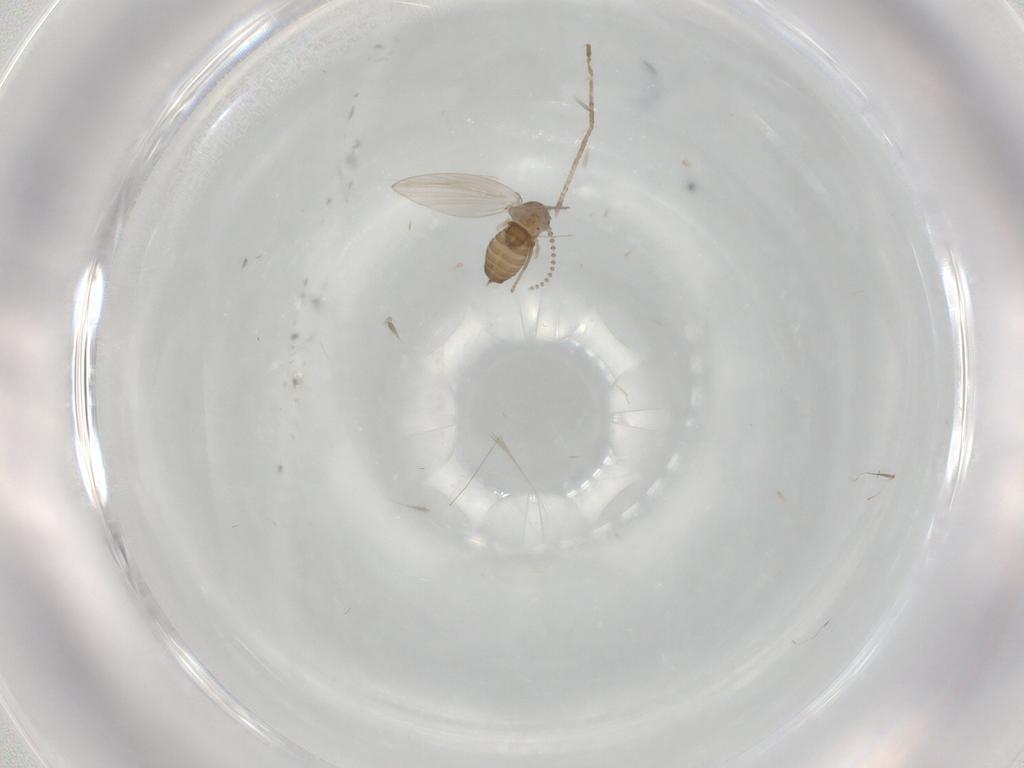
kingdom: Animalia
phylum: Arthropoda
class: Insecta
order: Diptera
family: Psychodidae
